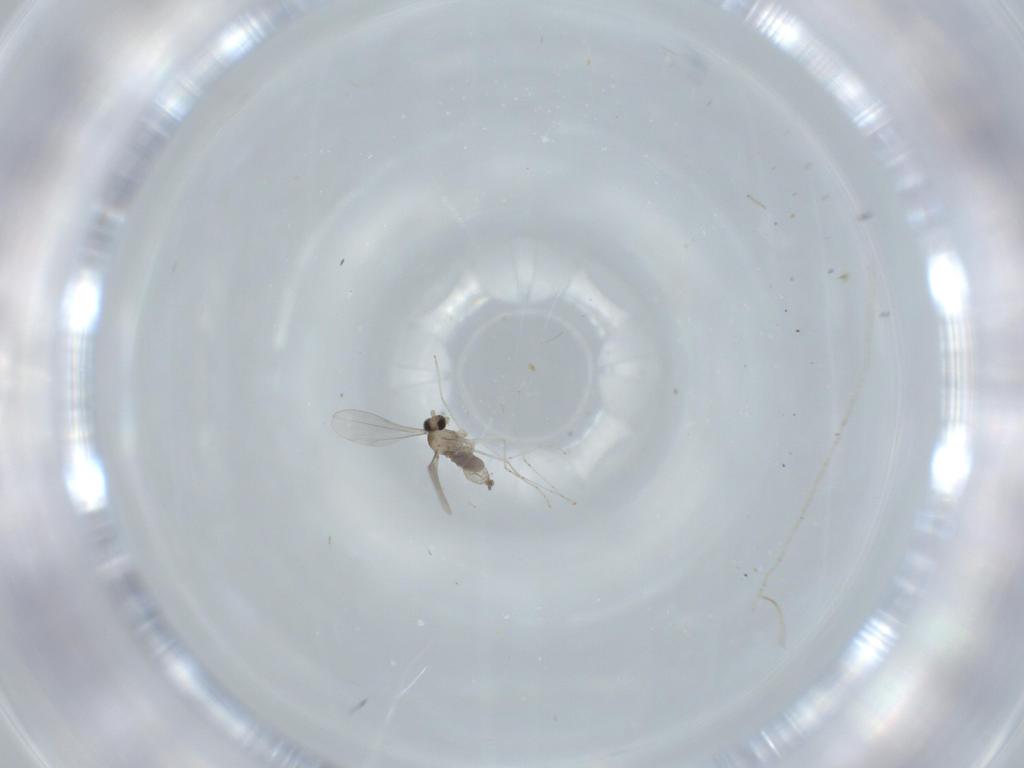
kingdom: Animalia
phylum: Arthropoda
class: Insecta
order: Diptera
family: Cecidomyiidae
